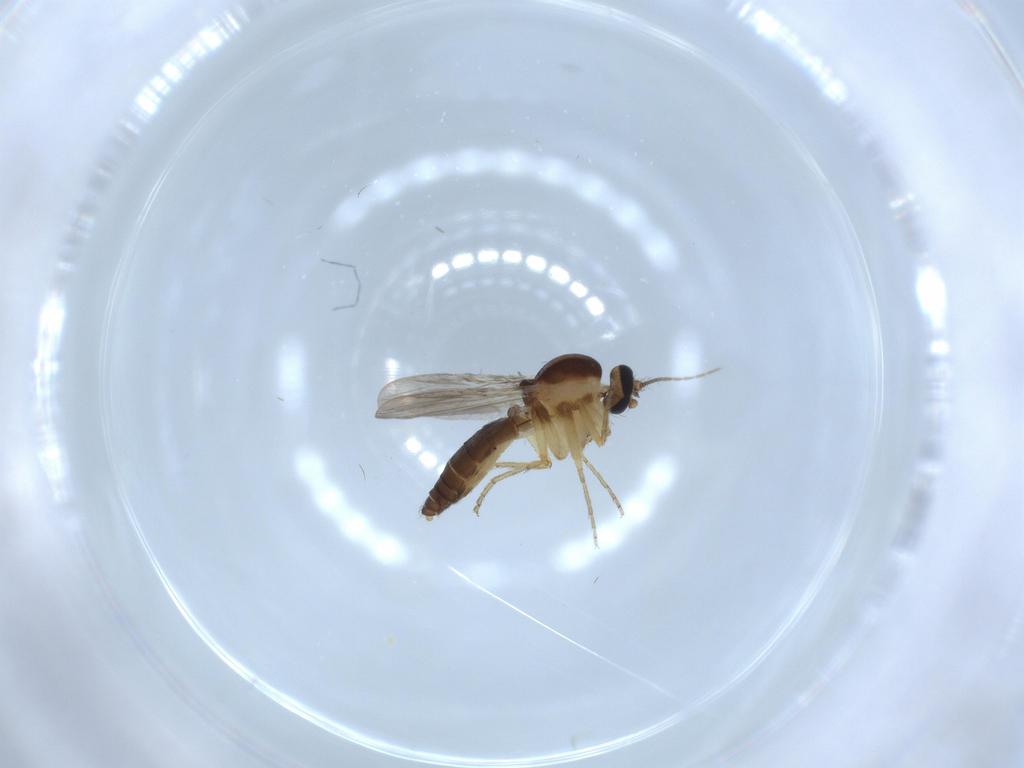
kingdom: Animalia
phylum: Arthropoda
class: Insecta
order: Diptera
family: Ceratopogonidae
